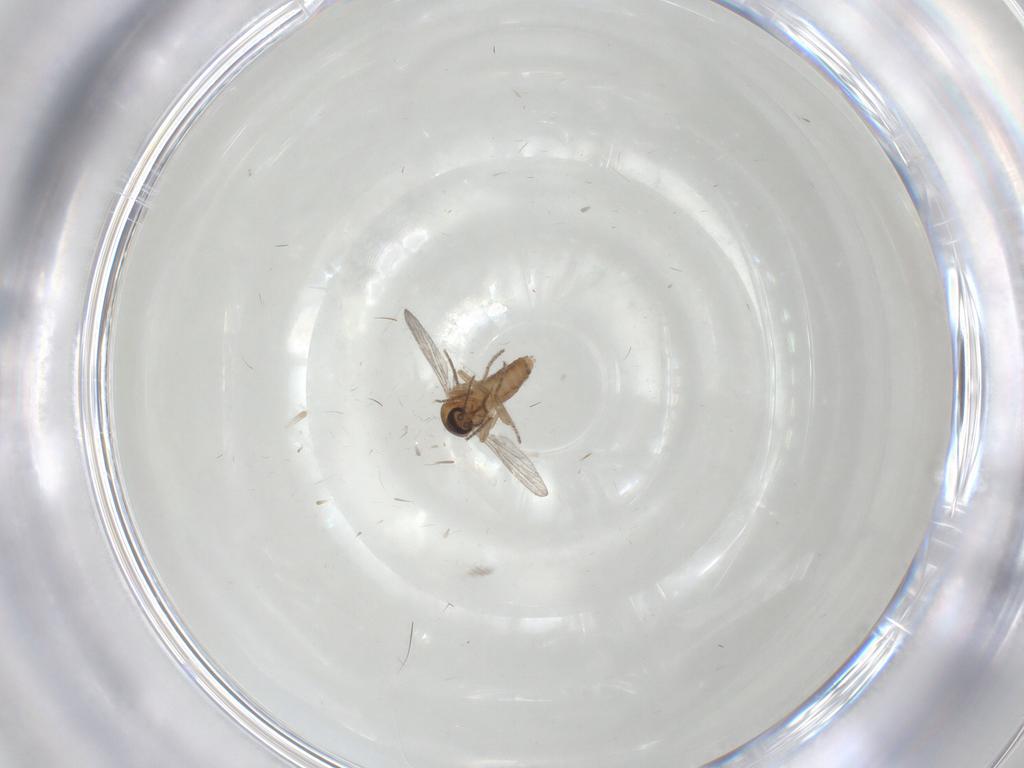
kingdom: Animalia
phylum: Arthropoda
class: Insecta
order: Diptera
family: Phoridae
